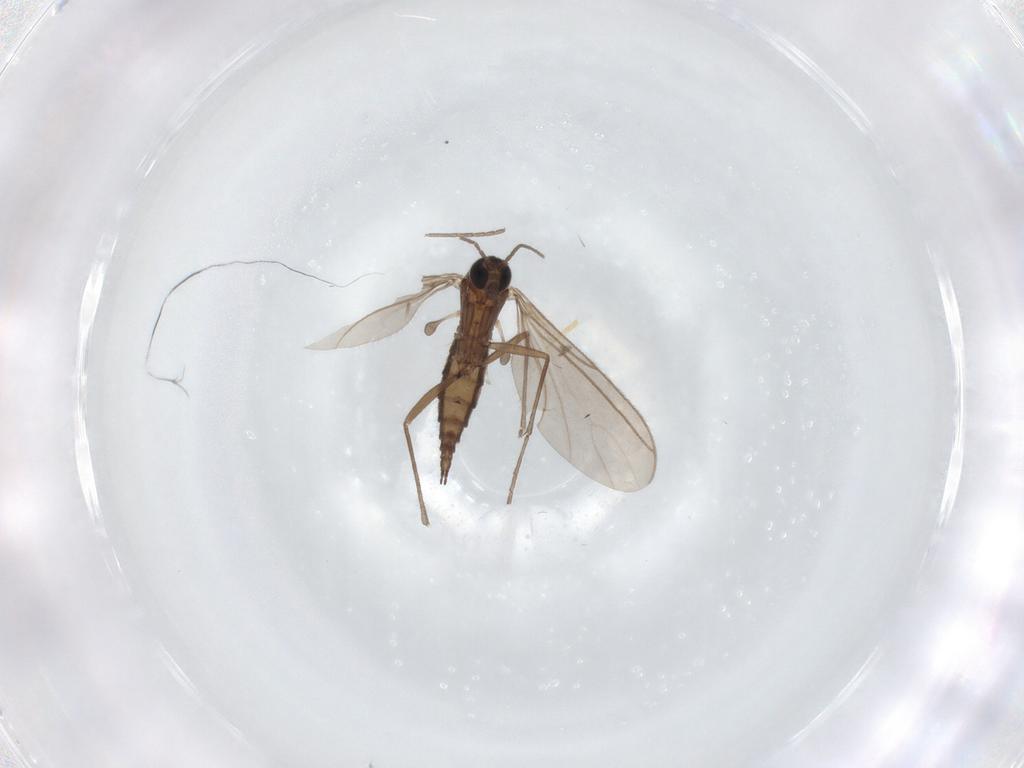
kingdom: Animalia
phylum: Arthropoda
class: Insecta
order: Diptera
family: Sciaridae
